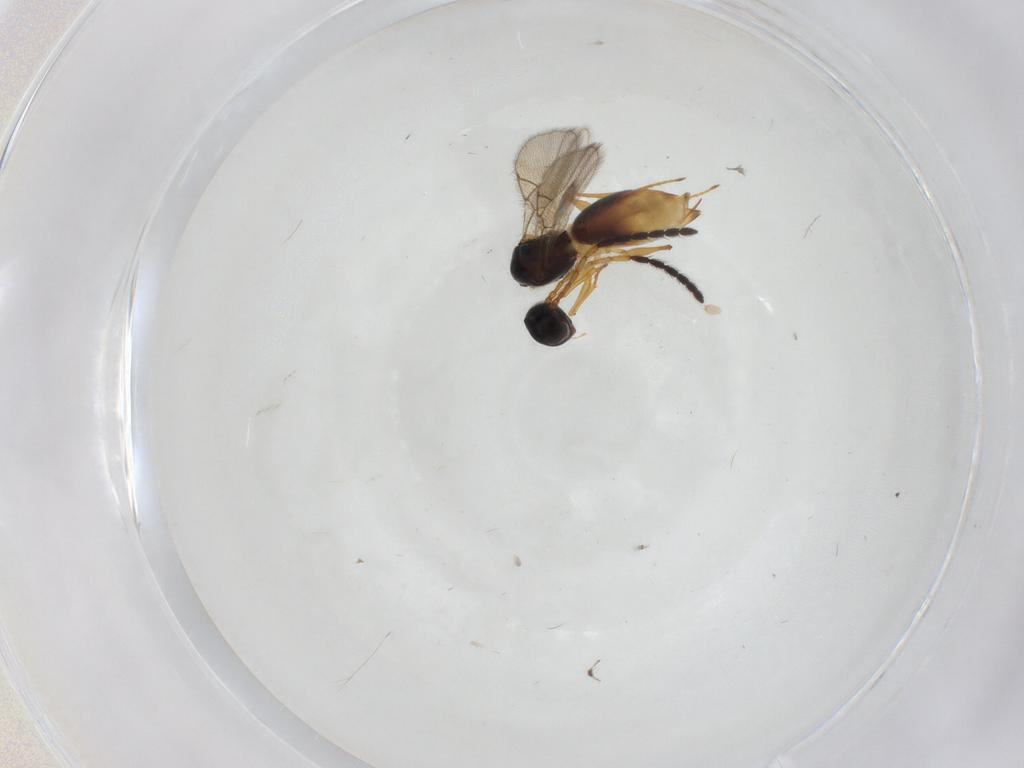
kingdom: Animalia
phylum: Arthropoda
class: Insecta
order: Hymenoptera
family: Figitidae
